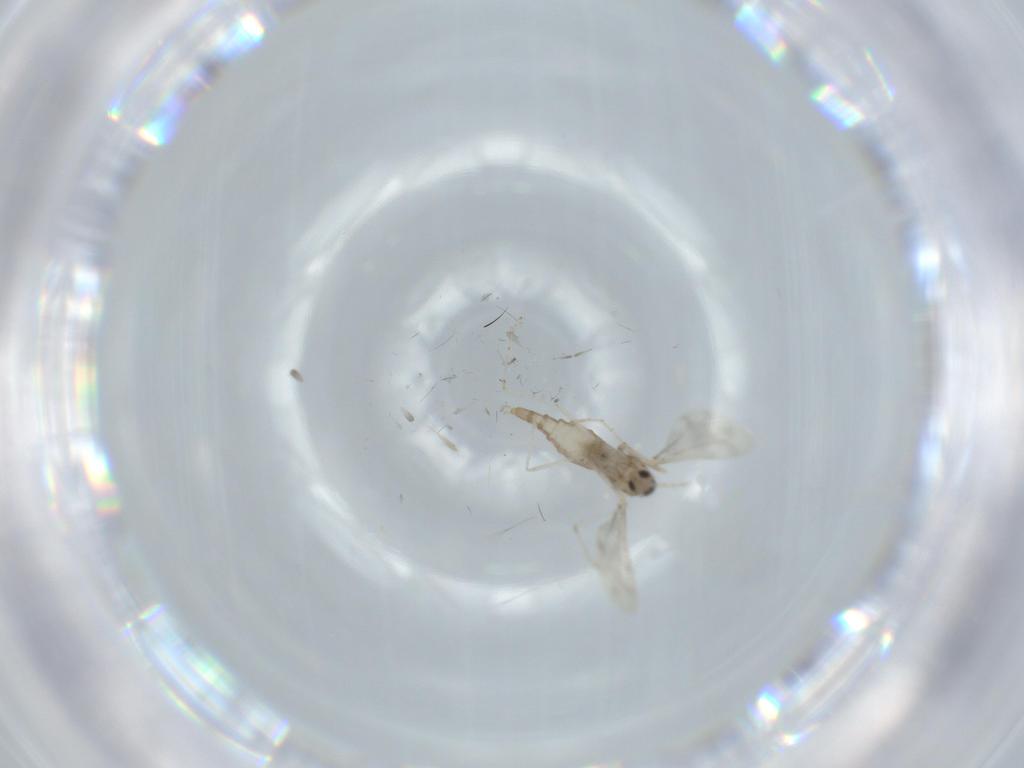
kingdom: Animalia
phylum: Arthropoda
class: Insecta
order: Diptera
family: Cecidomyiidae
